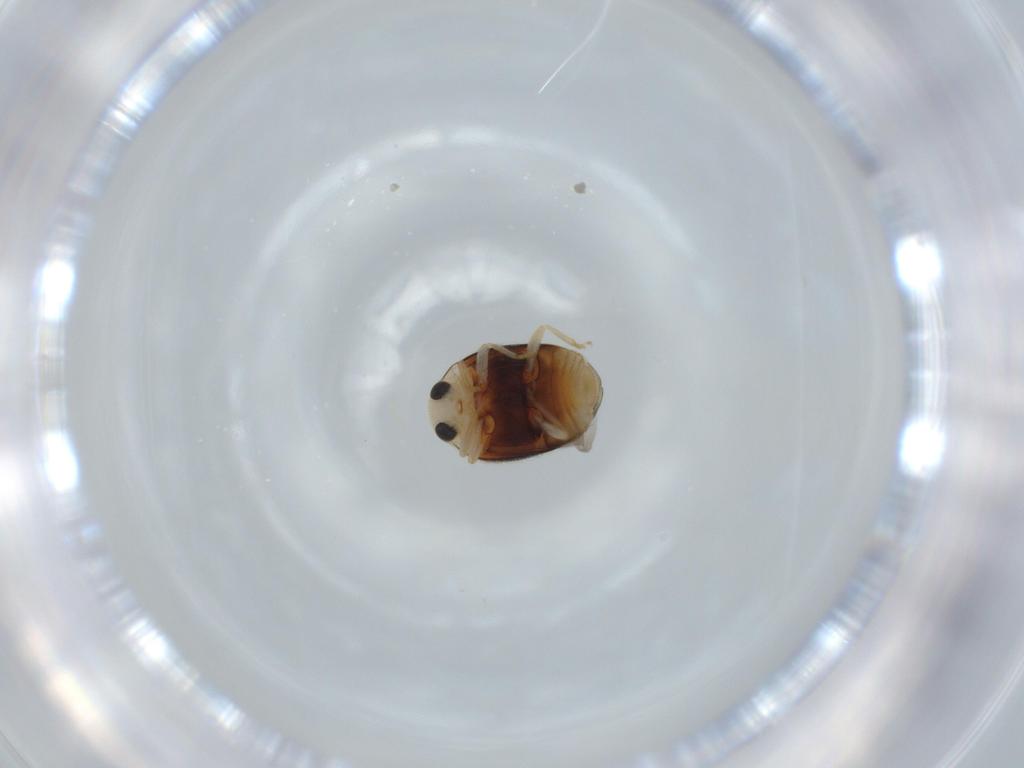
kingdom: Animalia
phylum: Arthropoda
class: Insecta
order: Coleoptera
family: Coccinellidae
